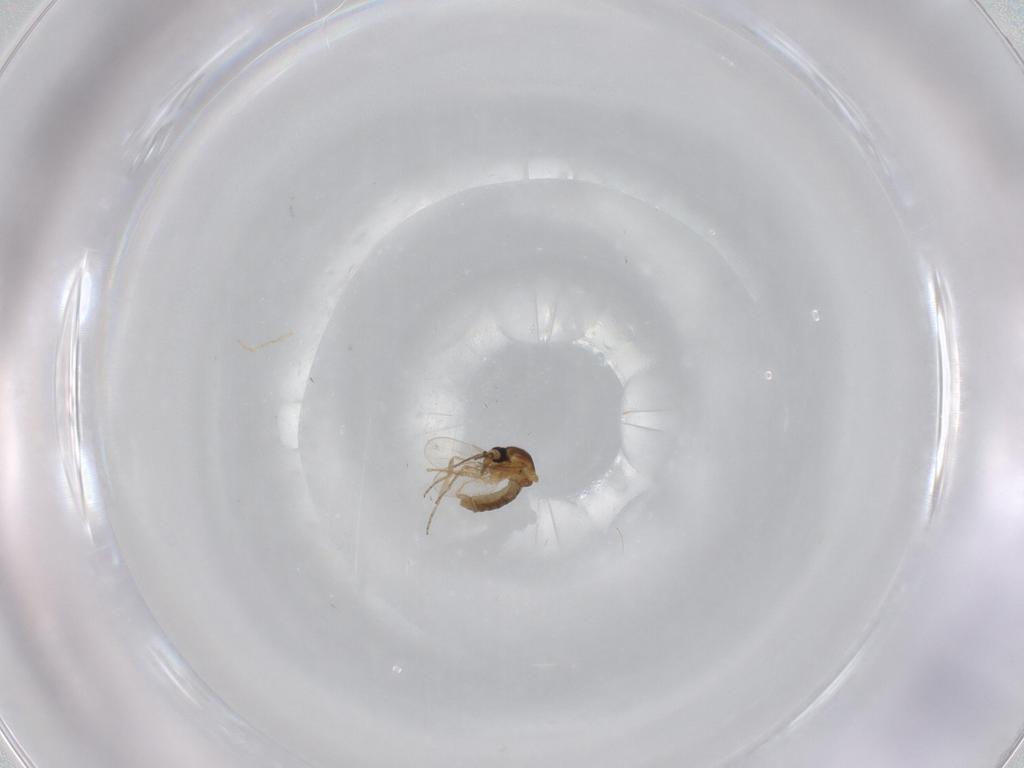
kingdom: Animalia
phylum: Arthropoda
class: Insecta
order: Diptera
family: Ceratopogonidae
